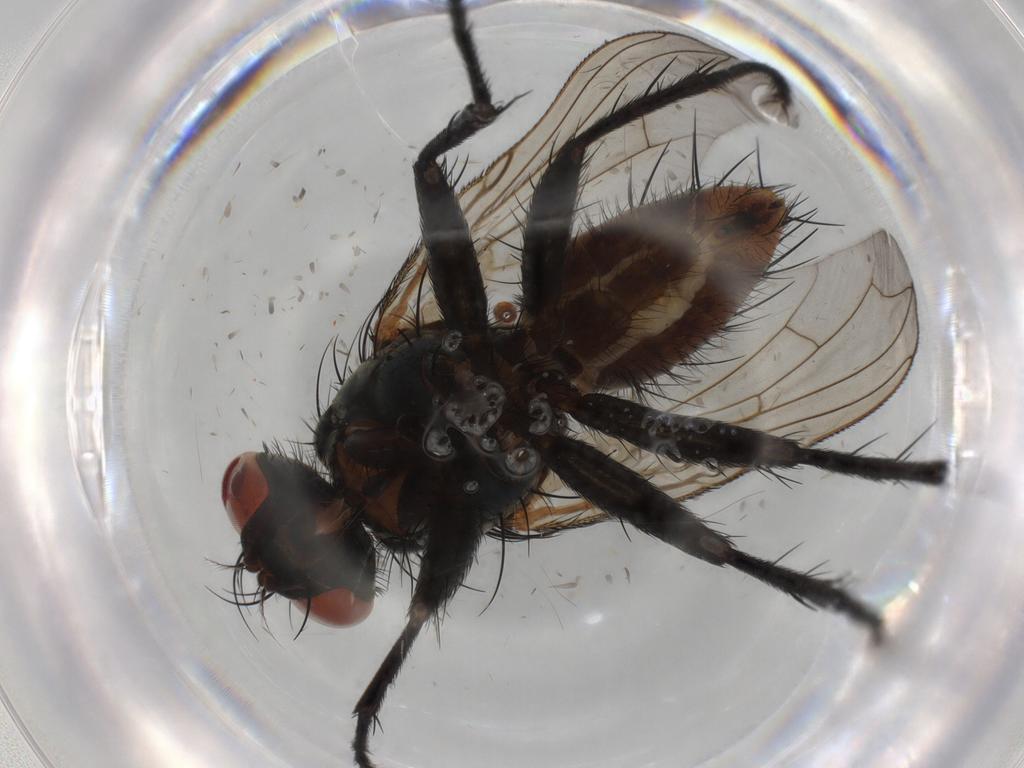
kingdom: Animalia
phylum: Arthropoda
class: Insecta
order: Diptera
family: Sarcophagidae
